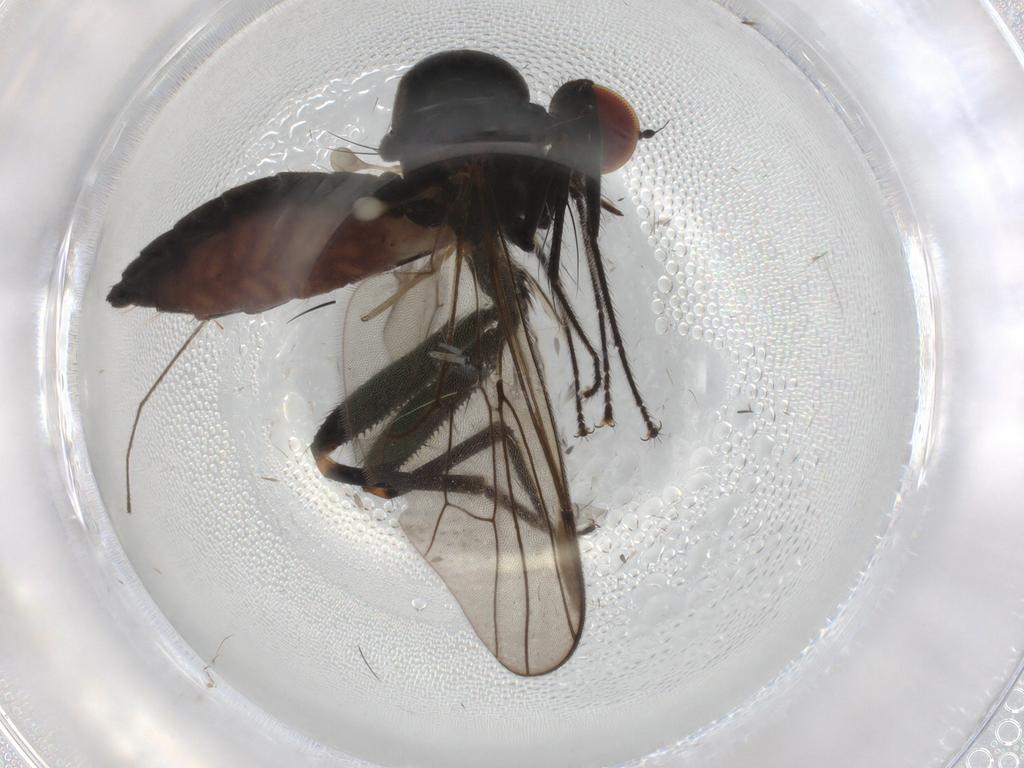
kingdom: Animalia
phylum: Arthropoda
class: Insecta
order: Diptera
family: Hybotidae
